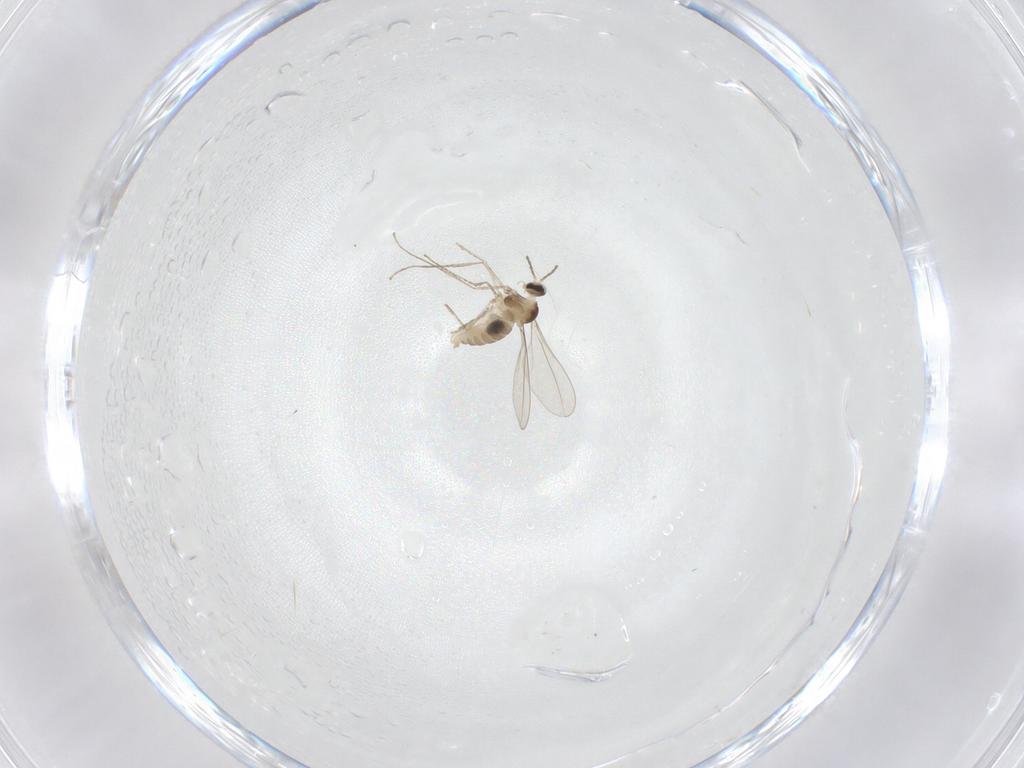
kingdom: Animalia
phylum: Arthropoda
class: Insecta
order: Diptera
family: Cecidomyiidae
